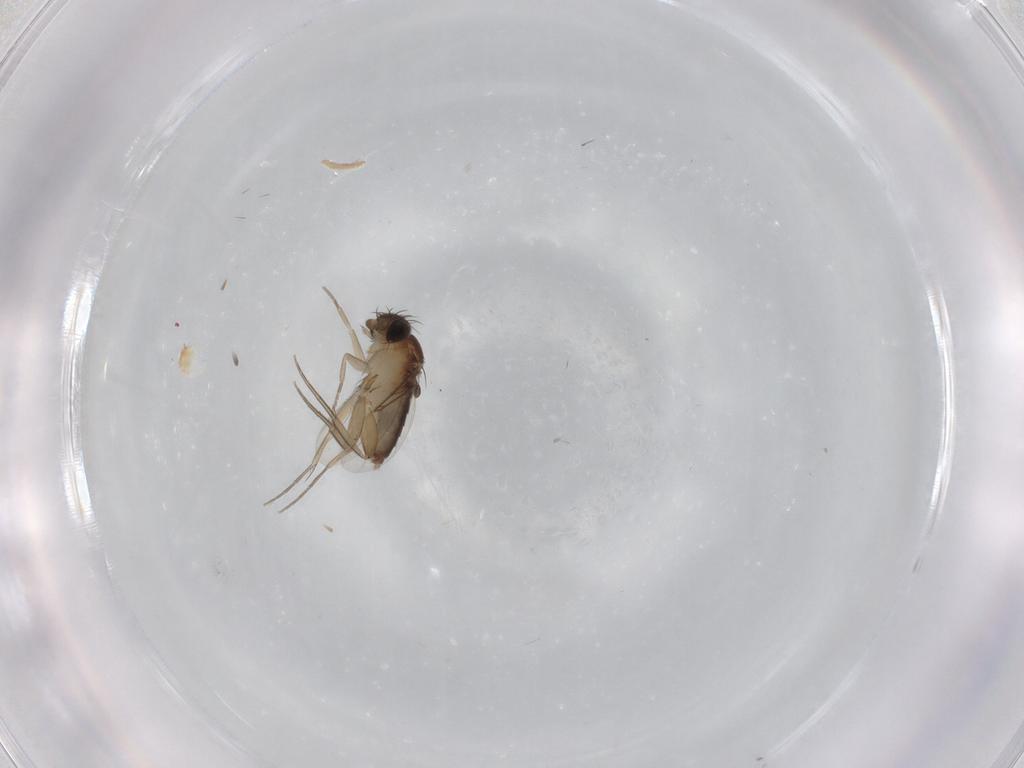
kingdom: Animalia
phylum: Arthropoda
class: Insecta
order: Diptera
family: Phoridae
